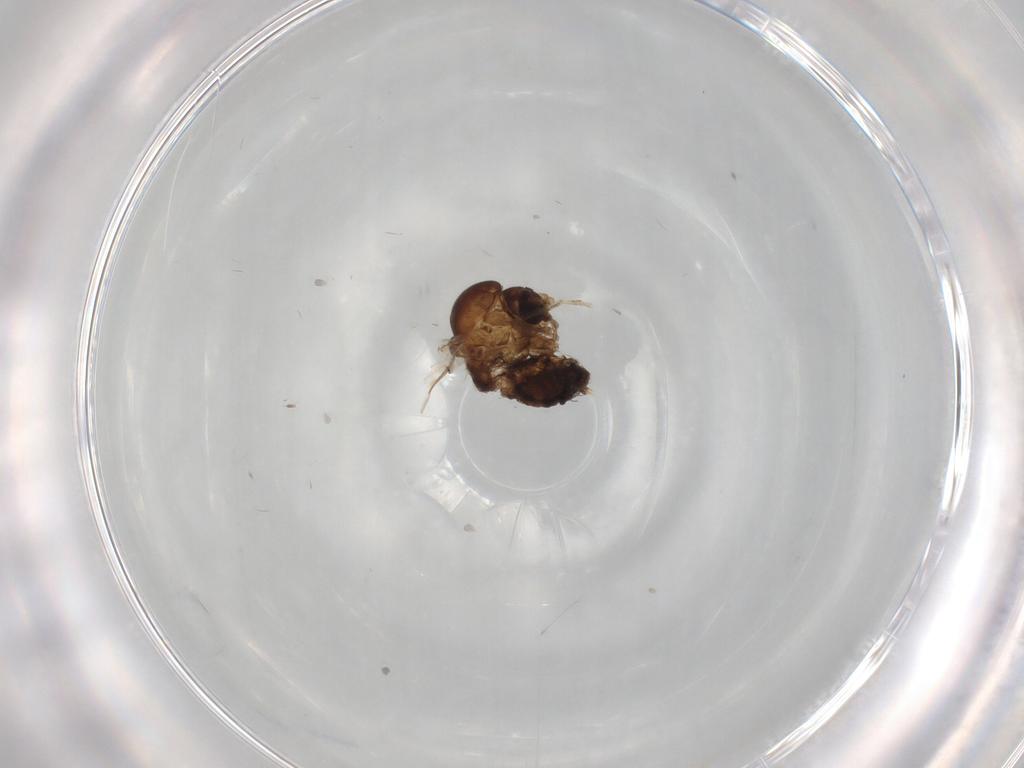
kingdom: Animalia
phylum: Arthropoda
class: Insecta
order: Diptera
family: Psychodidae
